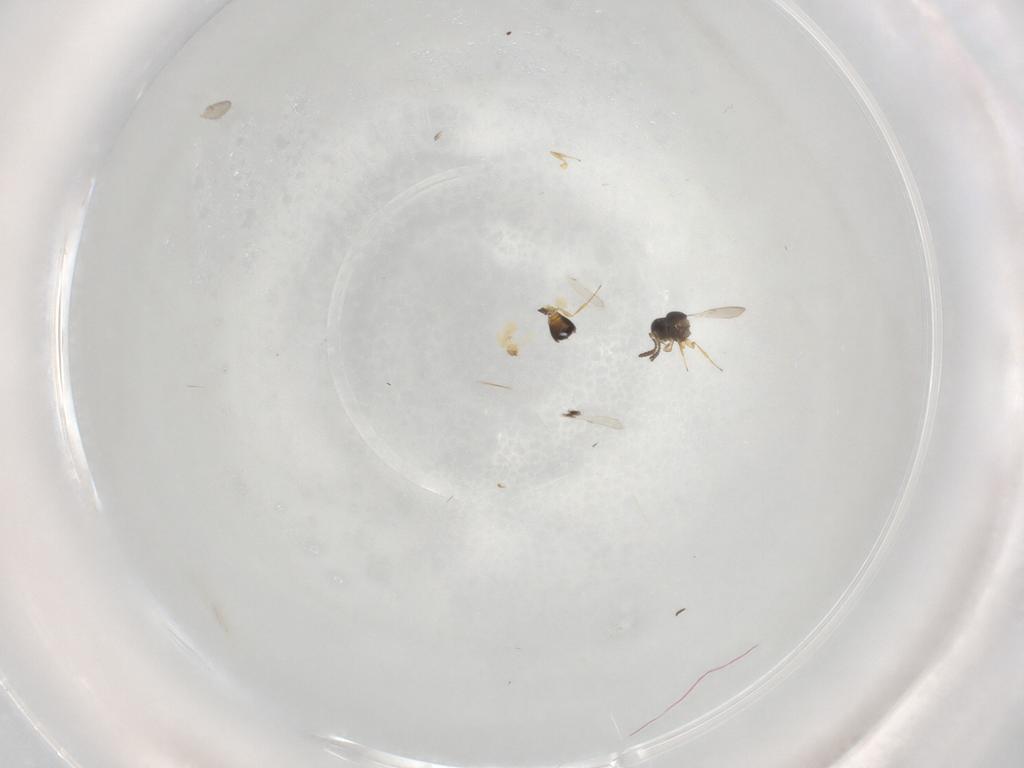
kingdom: Animalia
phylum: Arthropoda
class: Insecta
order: Hymenoptera
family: Scelionidae
